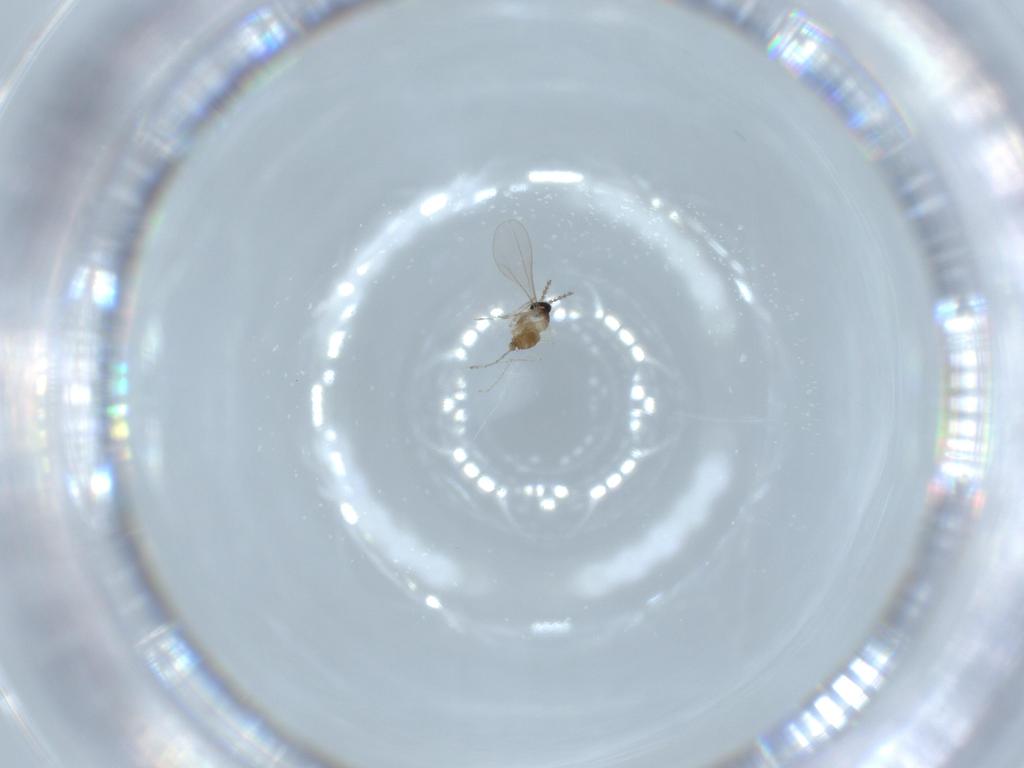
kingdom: Animalia
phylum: Arthropoda
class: Insecta
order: Diptera
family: Cecidomyiidae
